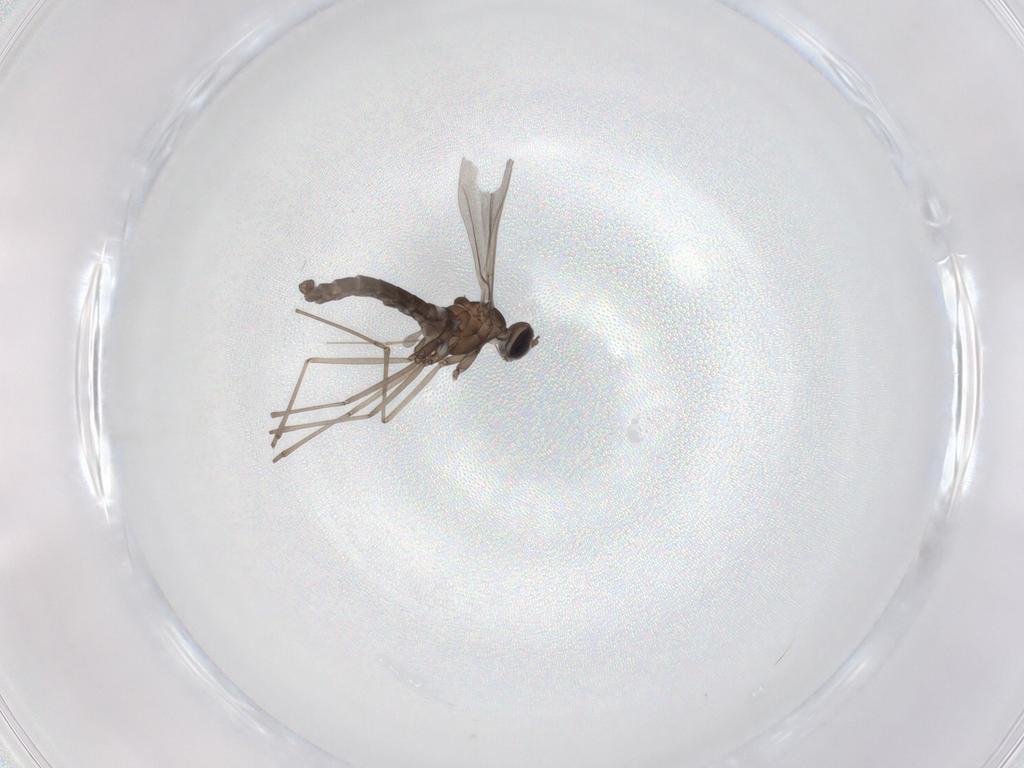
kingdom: Animalia
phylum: Arthropoda
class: Insecta
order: Diptera
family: Cecidomyiidae
